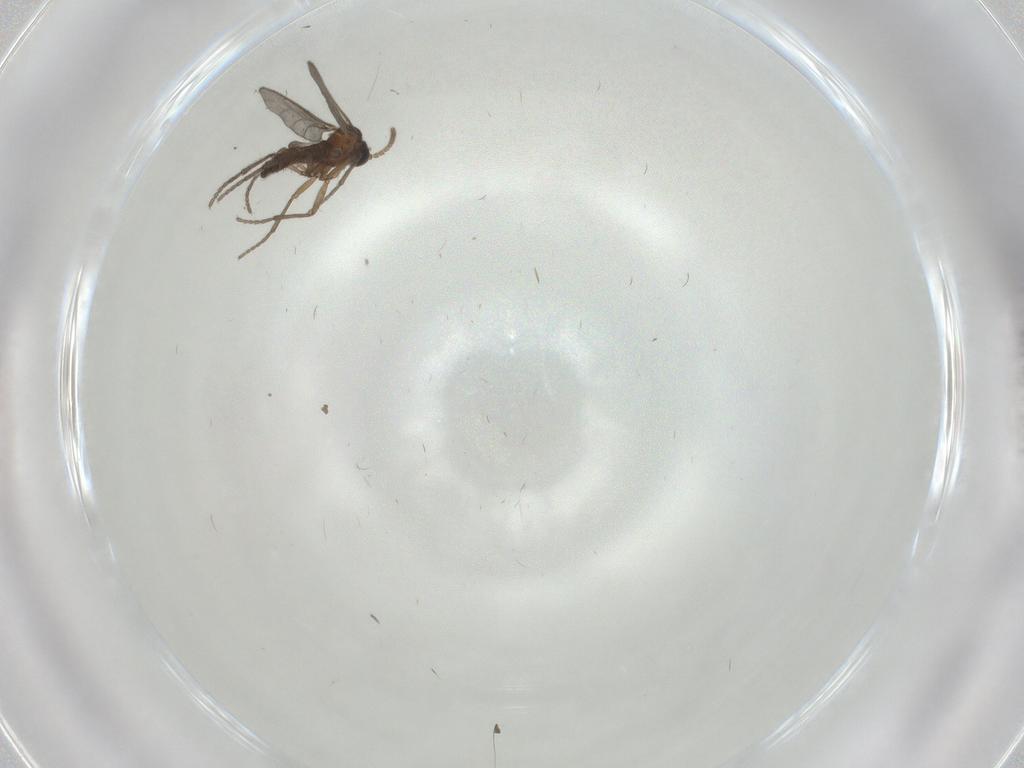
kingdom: Animalia
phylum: Arthropoda
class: Insecta
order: Diptera
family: Sciaridae
